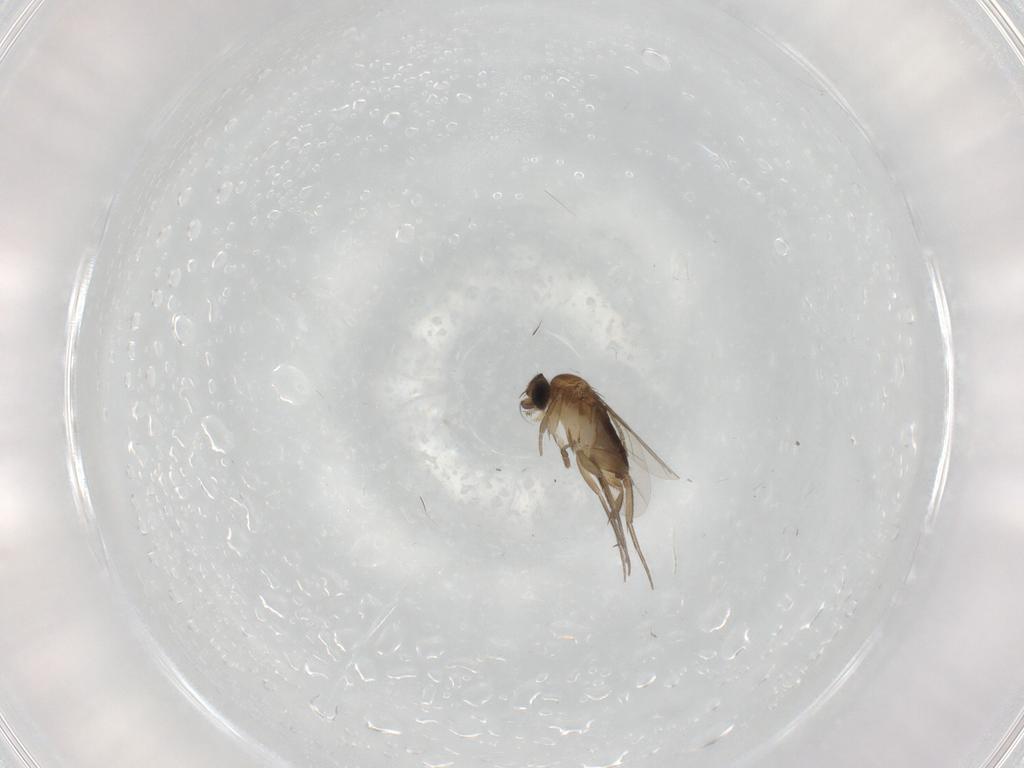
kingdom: Animalia
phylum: Arthropoda
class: Insecta
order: Diptera
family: Phoridae
